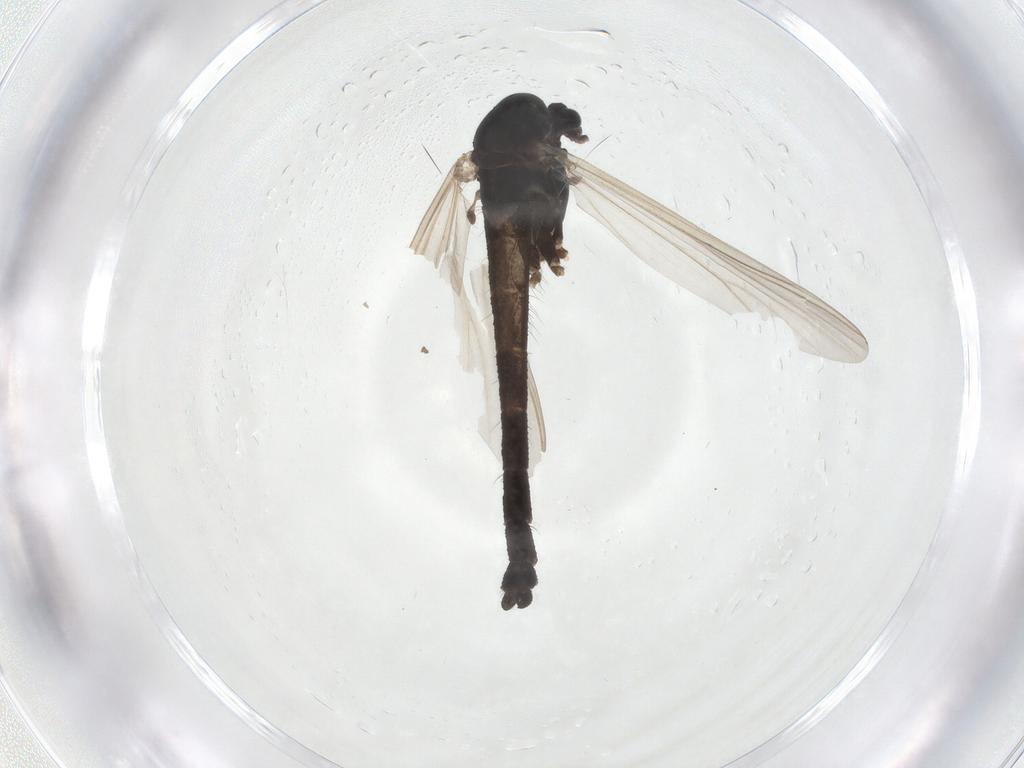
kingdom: Animalia
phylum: Arthropoda
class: Insecta
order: Diptera
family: Chironomidae
